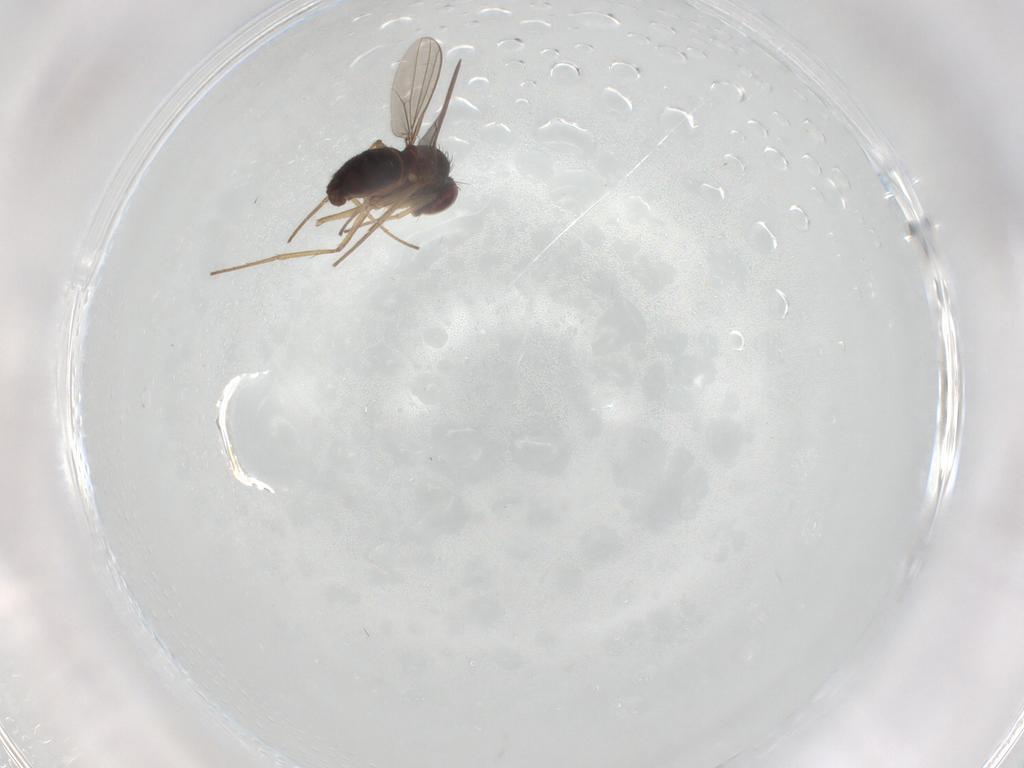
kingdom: Animalia
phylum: Arthropoda
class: Insecta
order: Diptera
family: Dolichopodidae
